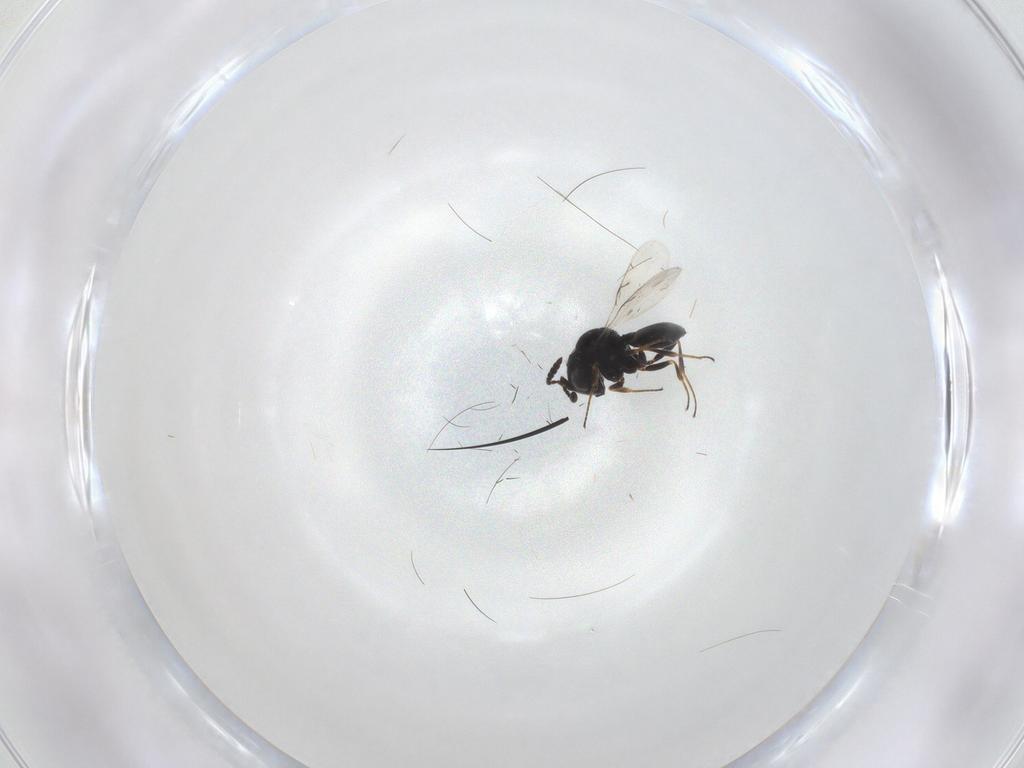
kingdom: Animalia
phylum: Arthropoda
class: Insecta
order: Hymenoptera
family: Scelionidae
